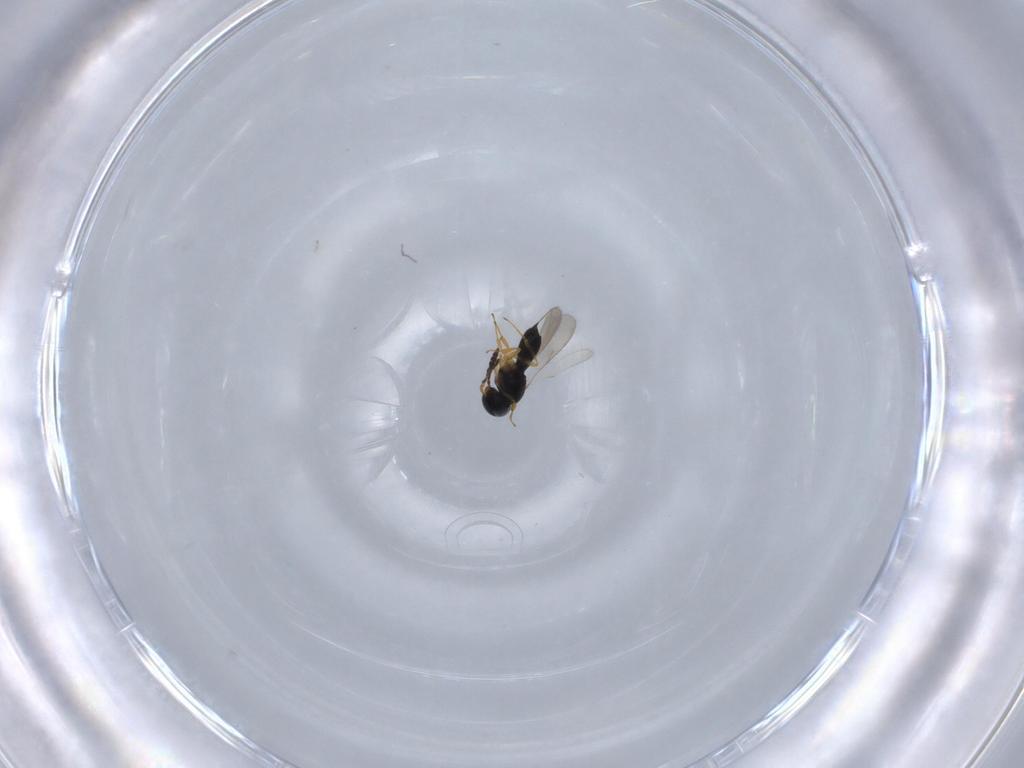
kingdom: Animalia
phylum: Arthropoda
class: Insecta
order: Hymenoptera
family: Scelionidae
